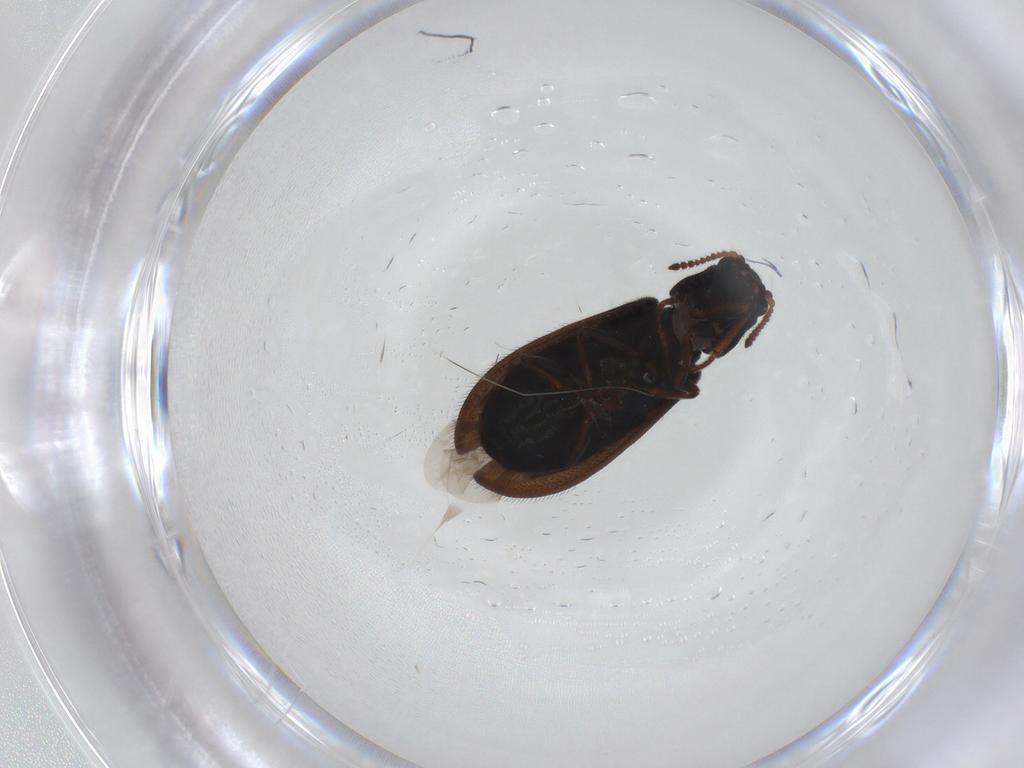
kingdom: Animalia
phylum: Arthropoda
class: Insecta
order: Coleoptera
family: Melyridae
